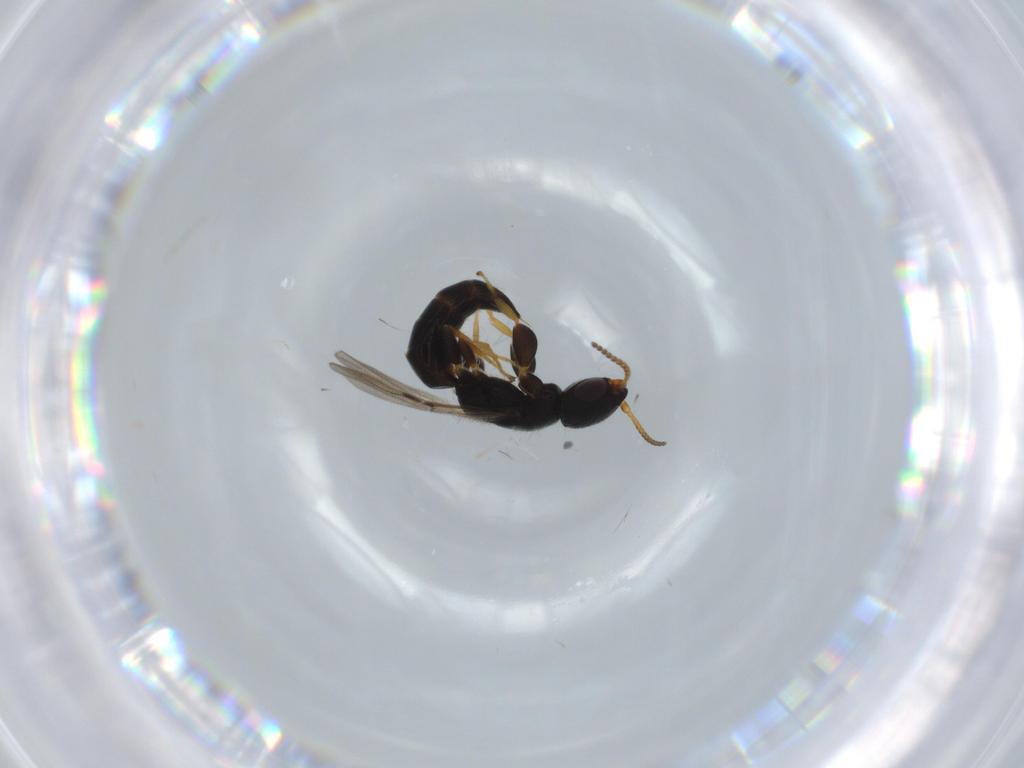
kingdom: Animalia
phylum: Arthropoda
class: Insecta
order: Hymenoptera
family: Bethylidae
